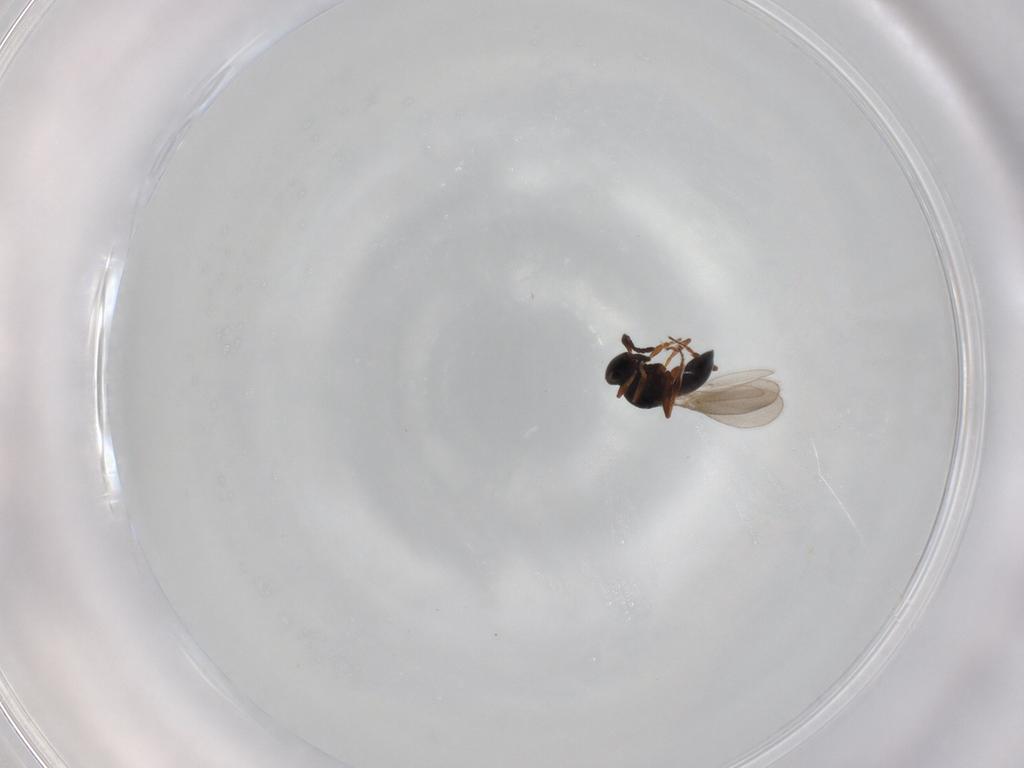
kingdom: Animalia
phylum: Arthropoda
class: Insecta
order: Hymenoptera
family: Platygastridae
